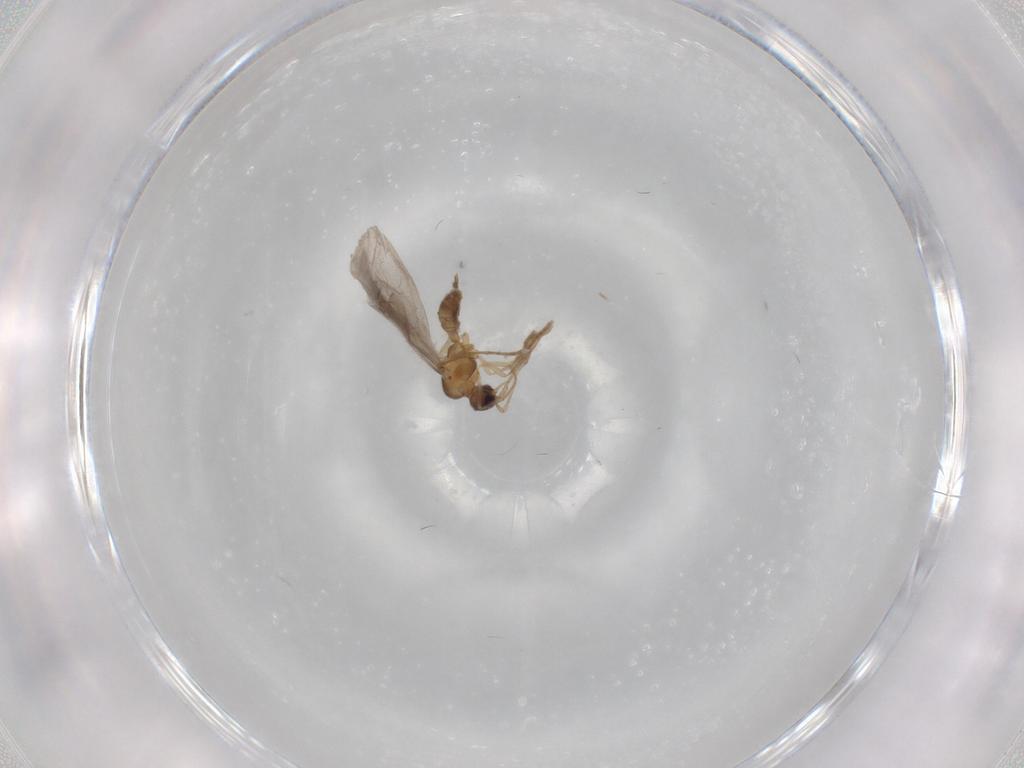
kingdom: Animalia
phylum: Arthropoda
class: Insecta
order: Hymenoptera
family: Formicidae
